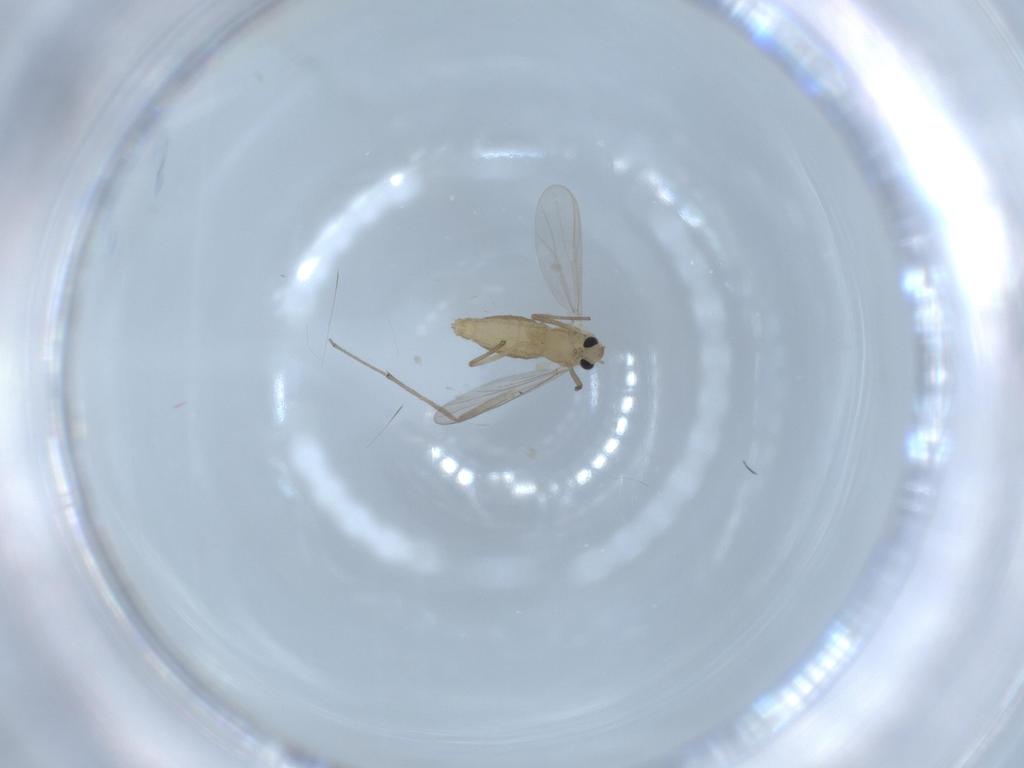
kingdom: Animalia
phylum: Arthropoda
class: Insecta
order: Diptera
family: Chironomidae
